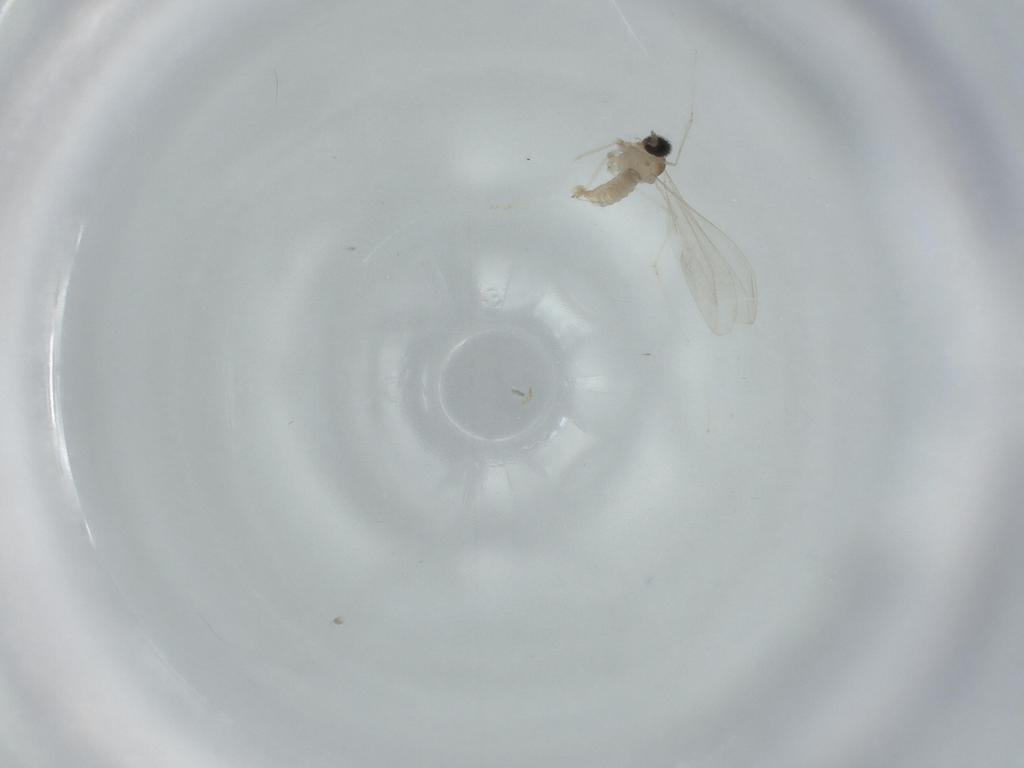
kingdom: Animalia
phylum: Arthropoda
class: Insecta
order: Diptera
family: Cecidomyiidae
